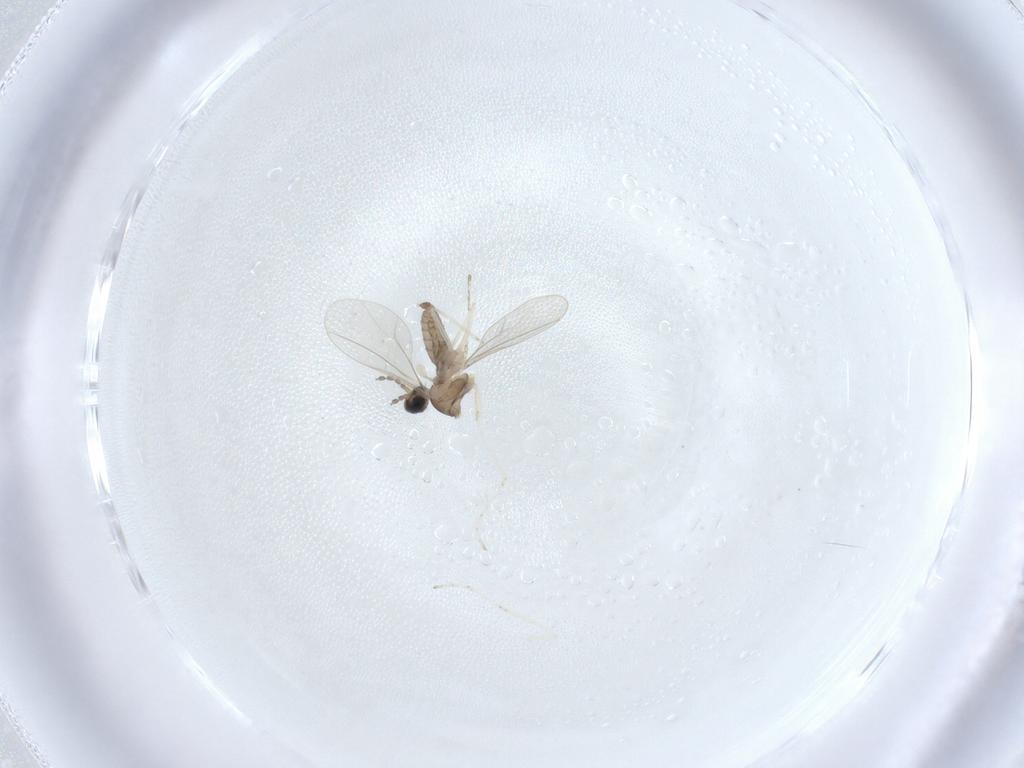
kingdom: Animalia
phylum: Arthropoda
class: Insecta
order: Diptera
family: Cecidomyiidae
